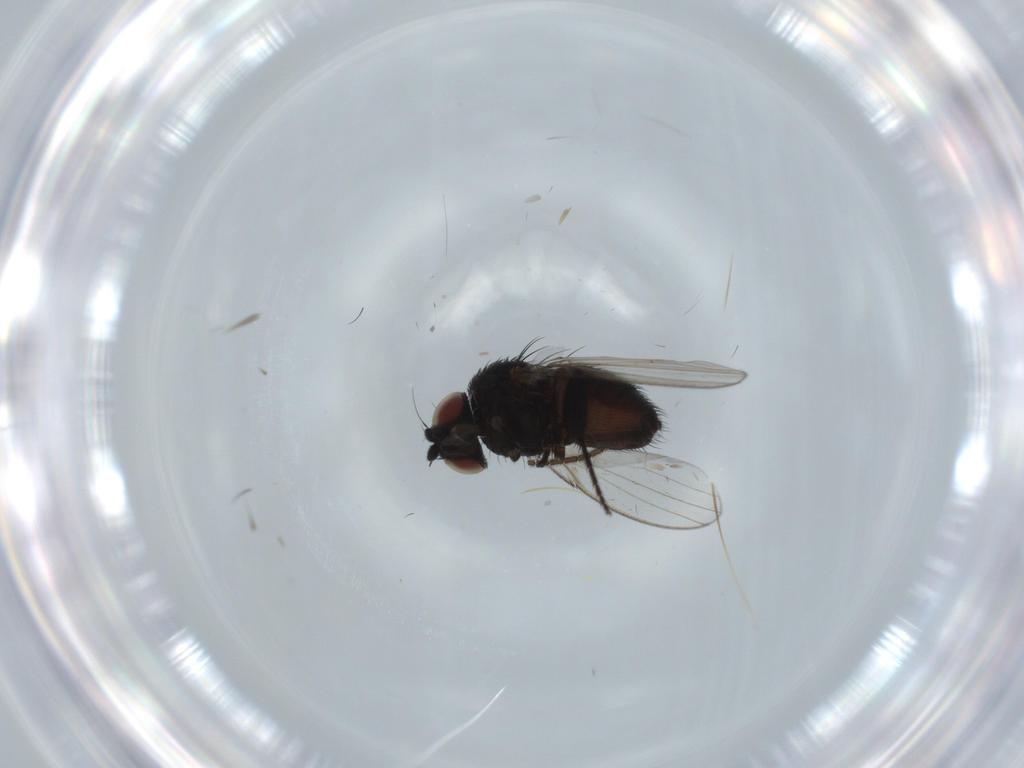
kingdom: Animalia
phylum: Arthropoda
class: Insecta
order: Diptera
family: Sciaridae
